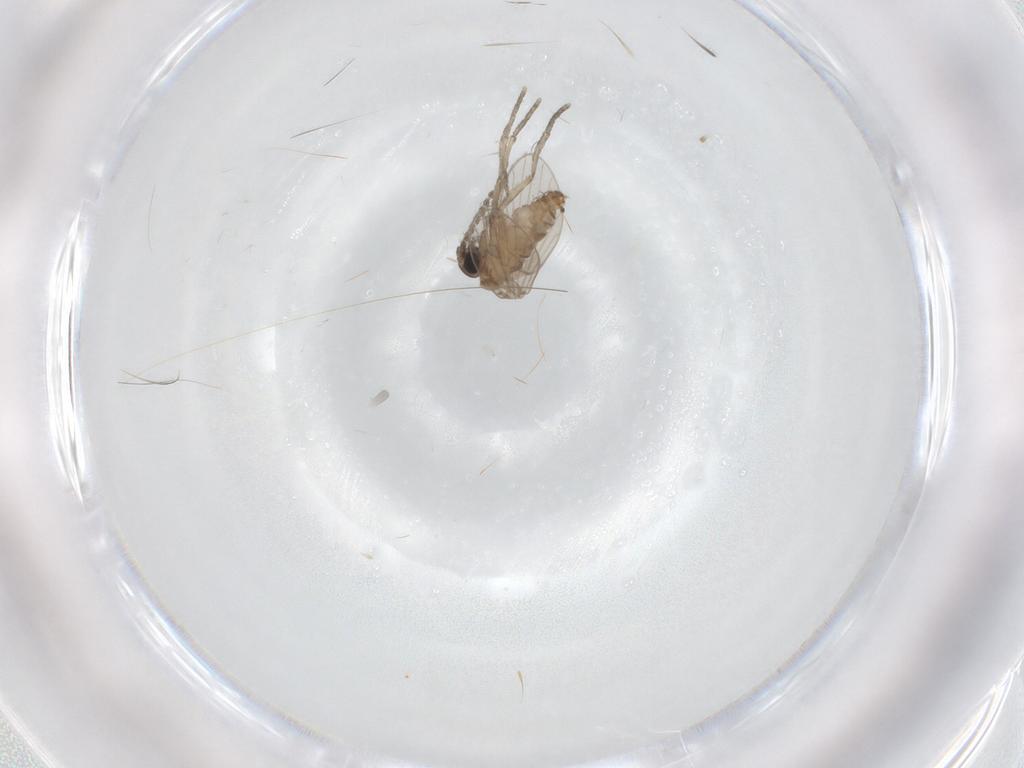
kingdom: Animalia
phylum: Arthropoda
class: Insecta
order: Diptera
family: Psychodidae
